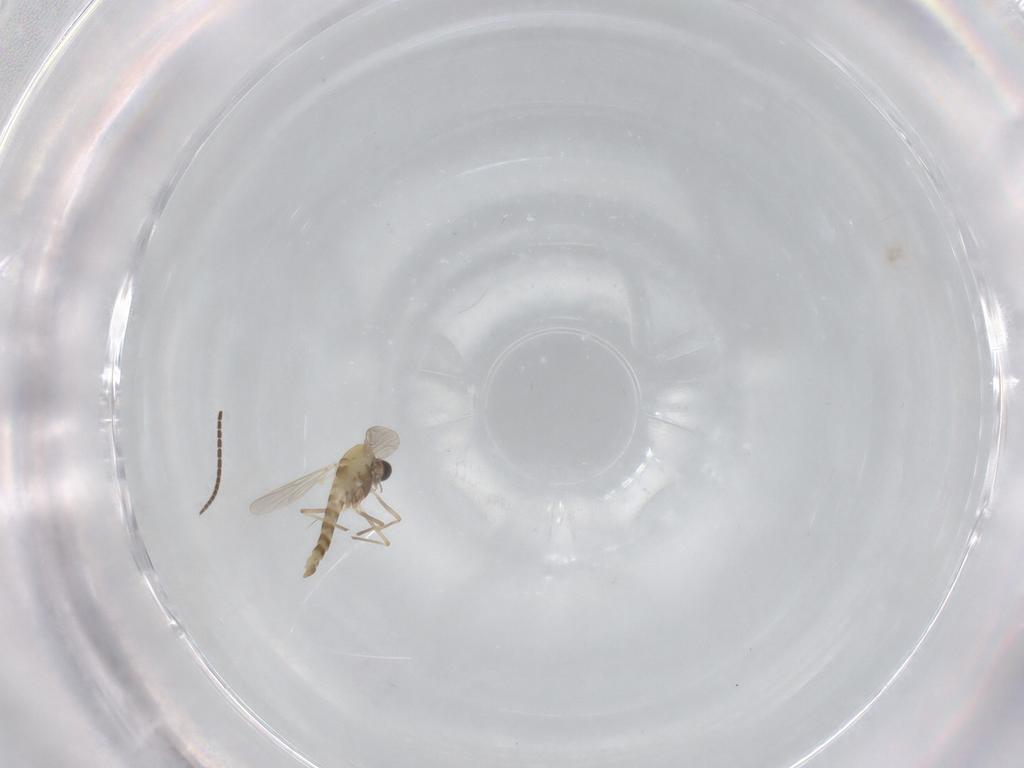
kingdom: Animalia
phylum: Arthropoda
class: Insecta
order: Diptera
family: Chironomidae
